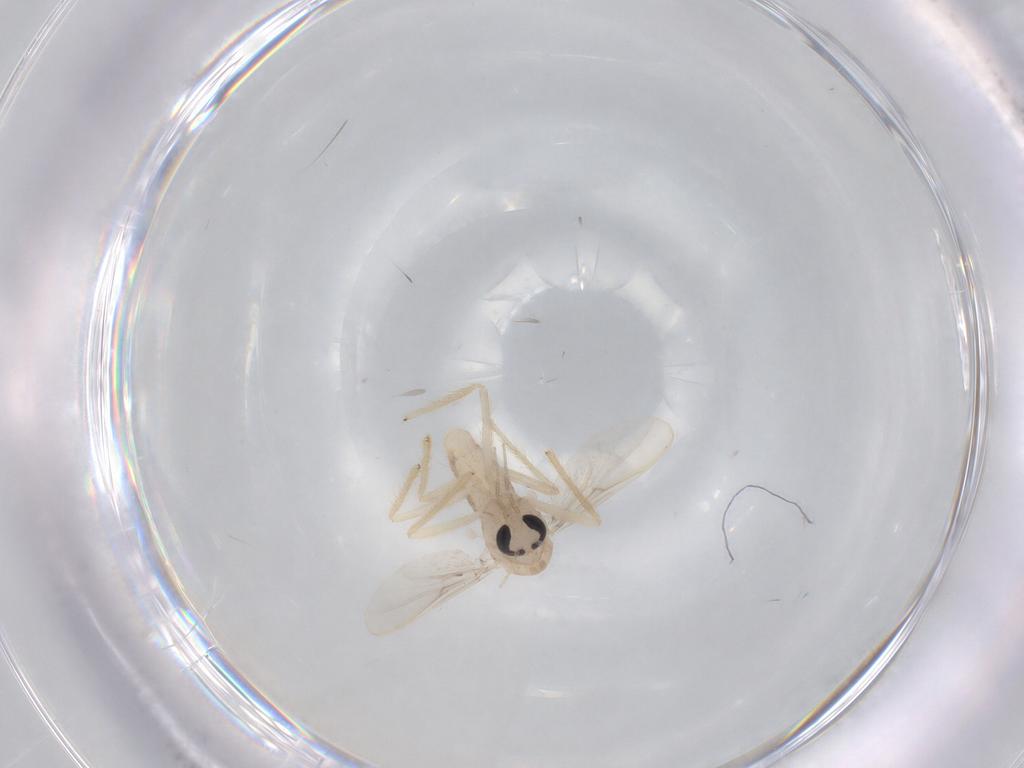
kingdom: Animalia
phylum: Arthropoda
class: Insecta
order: Diptera
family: Chironomidae
